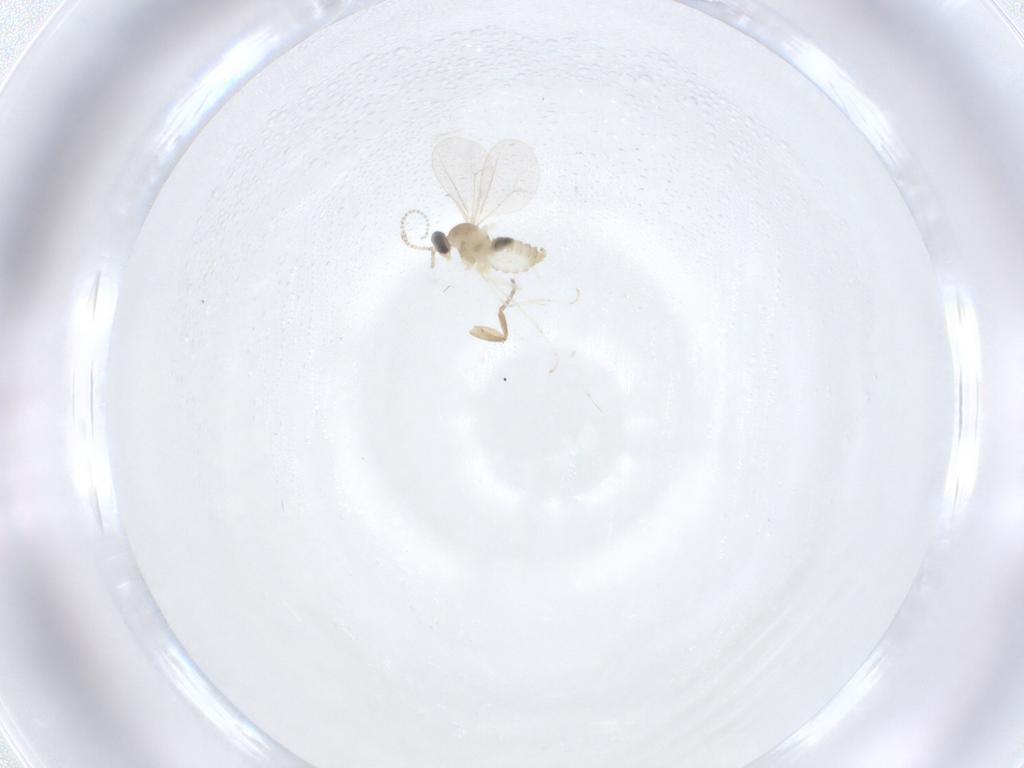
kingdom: Animalia
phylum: Arthropoda
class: Insecta
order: Diptera
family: Phoridae
